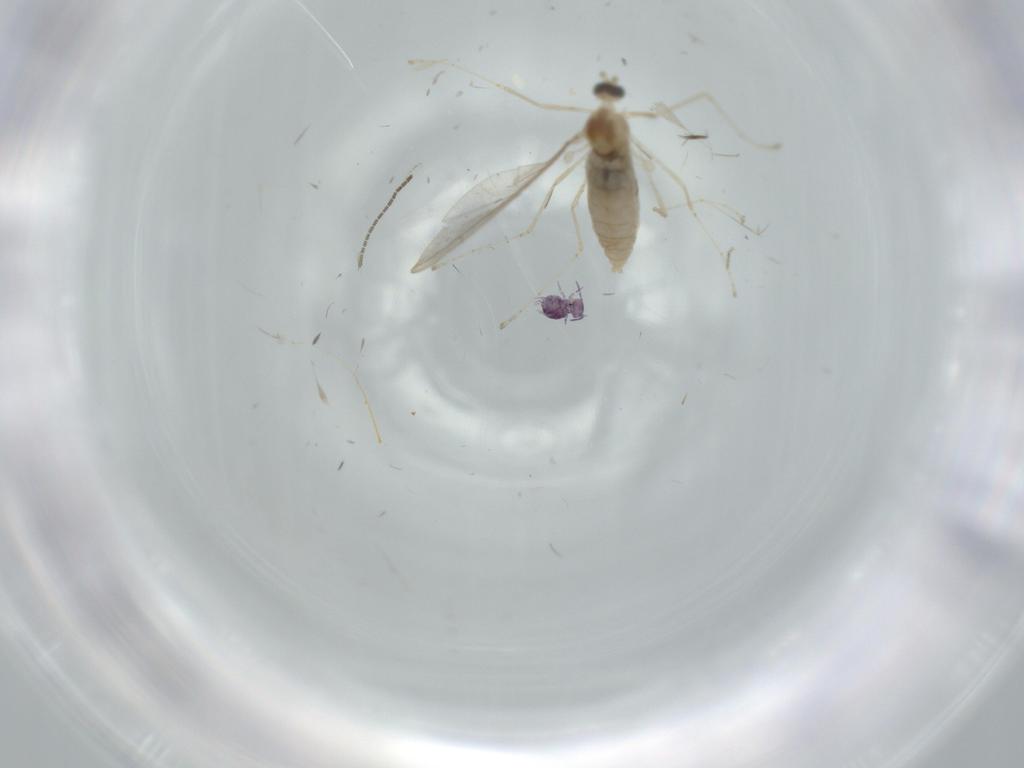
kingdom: Animalia
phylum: Arthropoda
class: Insecta
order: Diptera
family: Cecidomyiidae
